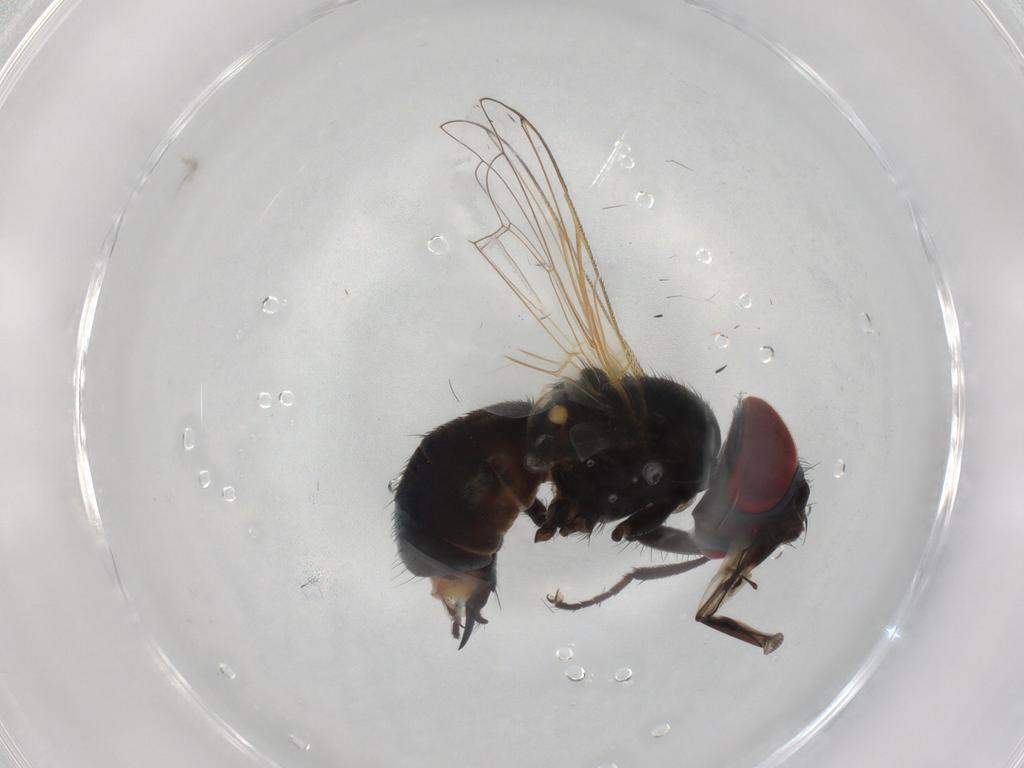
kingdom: Animalia
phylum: Arthropoda
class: Insecta
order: Diptera
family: Tachinidae
